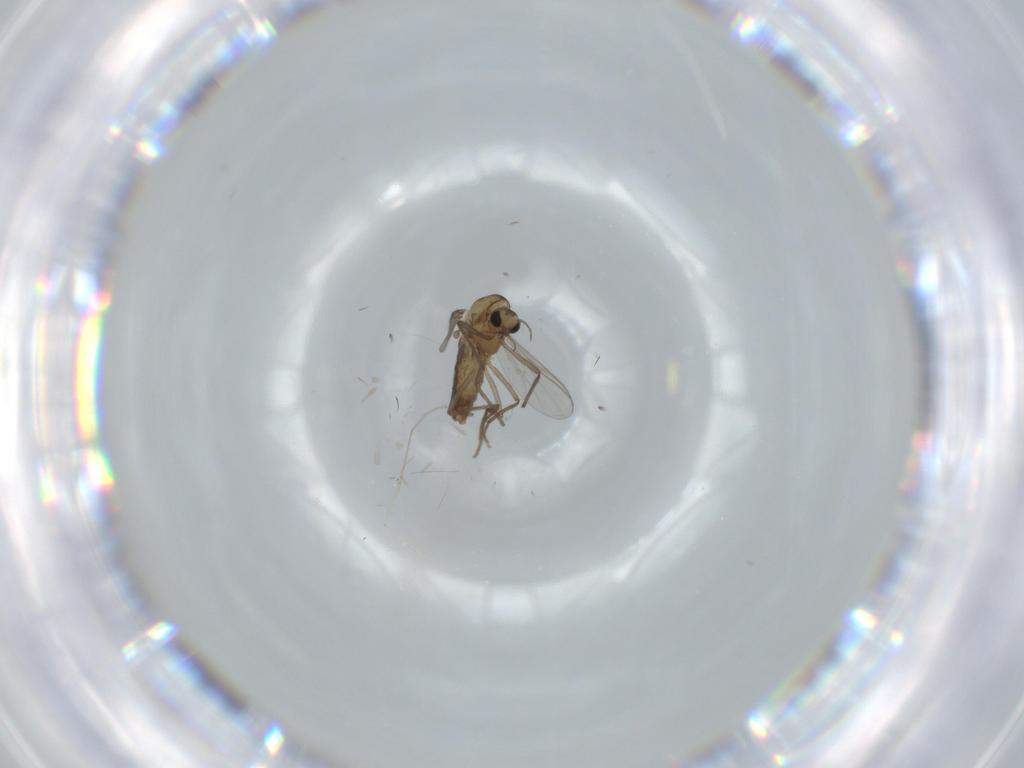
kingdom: Animalia
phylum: Arthropoda
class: Insecta
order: Diptera
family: Chironomidae
